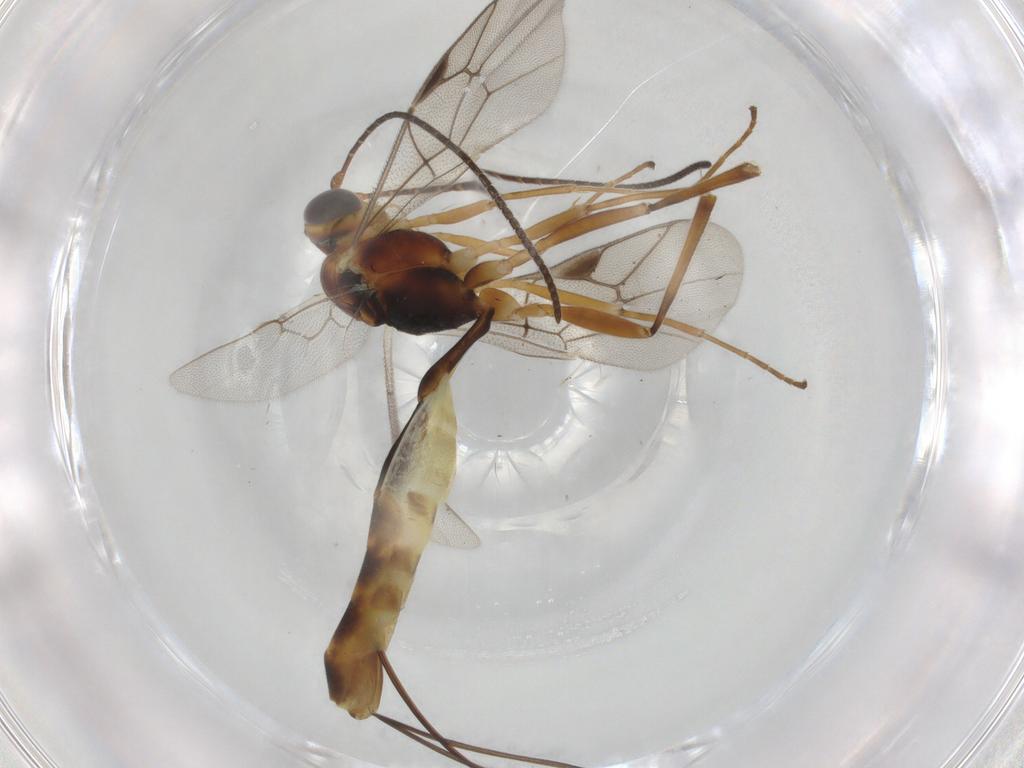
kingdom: Animalia
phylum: Arthropoda
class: Insecta
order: Hymenoptera
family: Ichneumonidae
